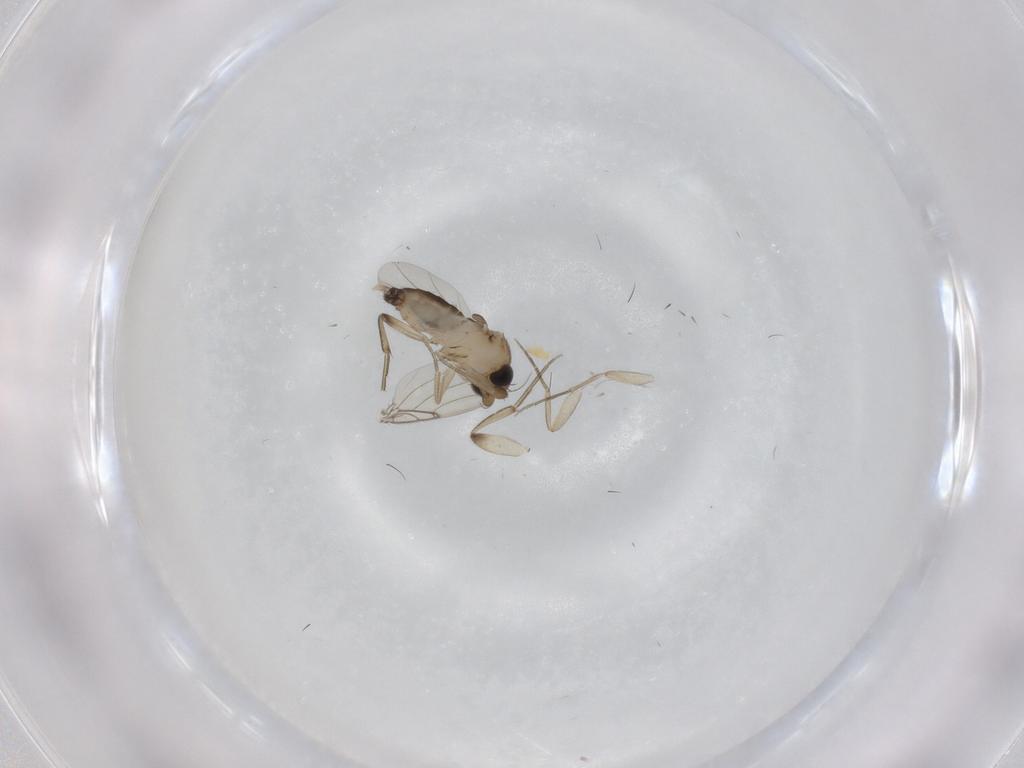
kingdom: Animalia
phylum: Arthropoda
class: Insecta
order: Diptera
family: Phoridae
